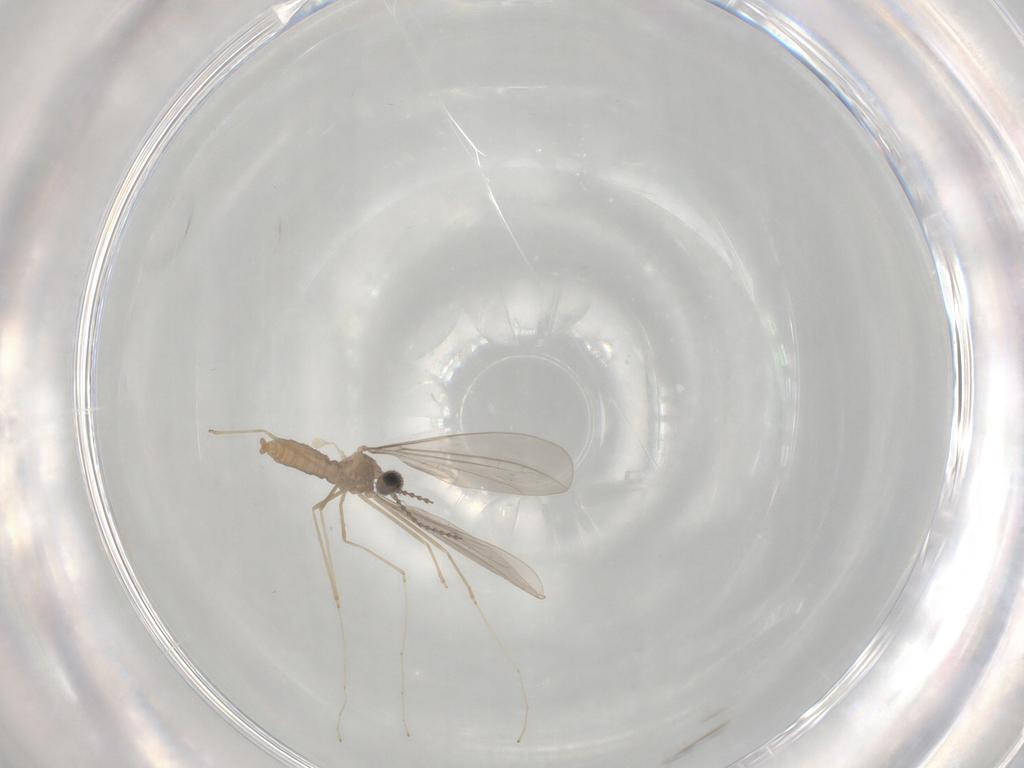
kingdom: Animalia
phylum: Arthropoda
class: Insecta
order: Diptera
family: Cecidomyiidae
